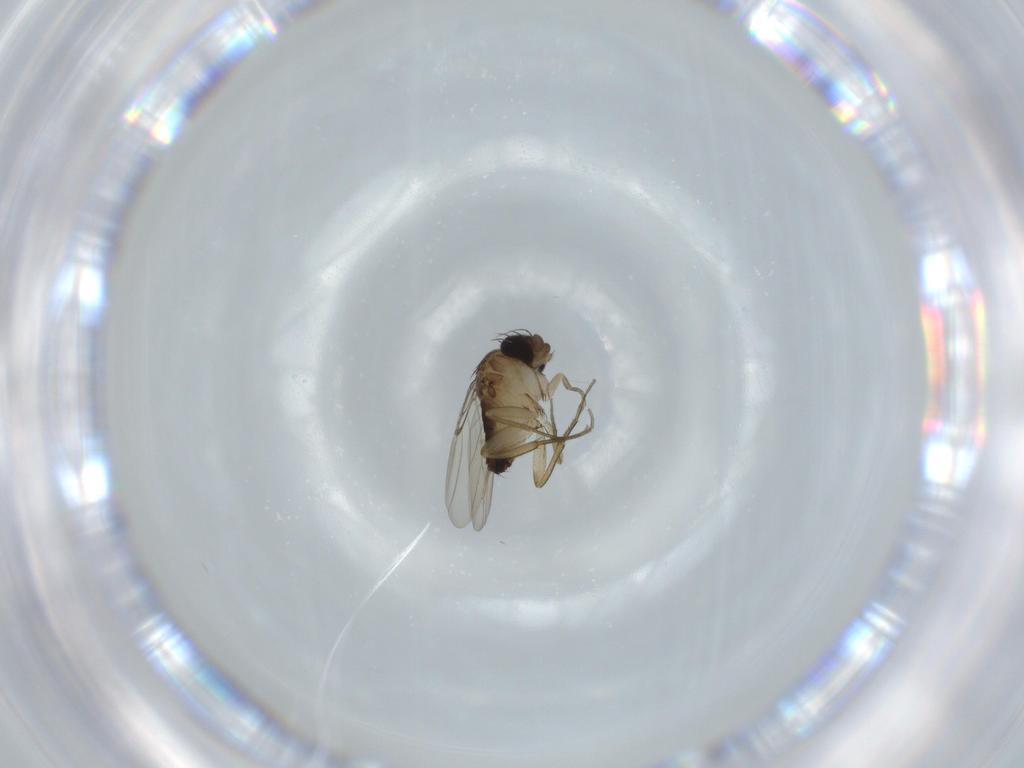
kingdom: Animalia
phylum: Arthropoda
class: Insecta
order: Diptera
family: Phoridae
